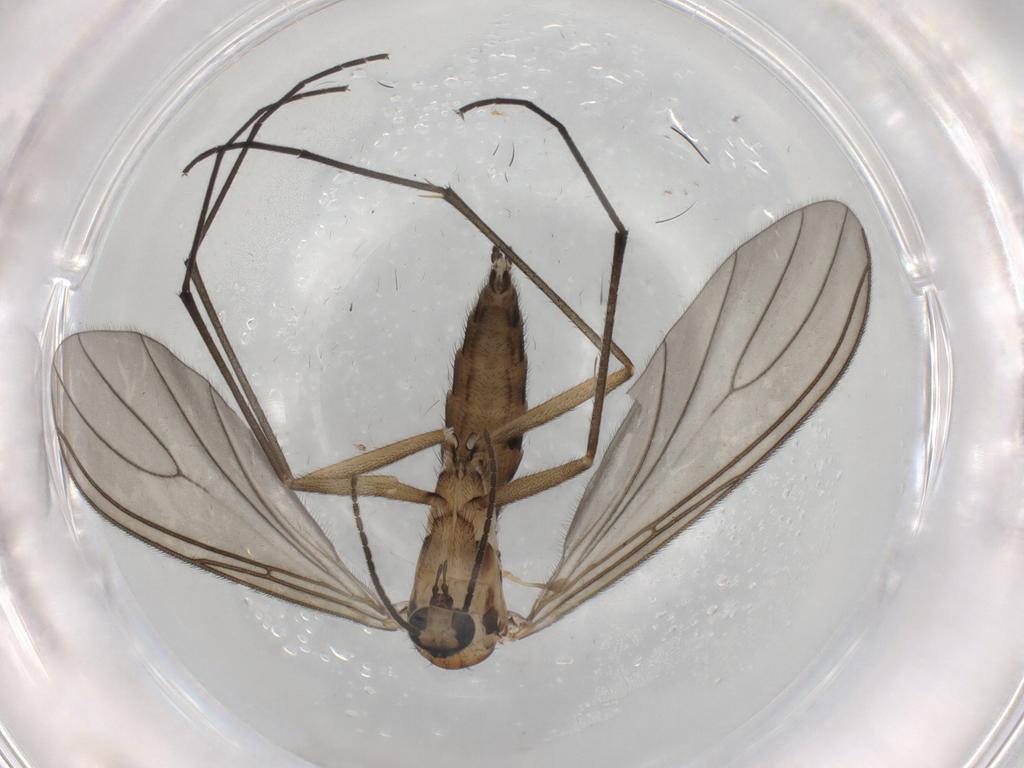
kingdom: Animalia
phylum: Arthropoda
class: Insecta
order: Diptera
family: Sciaridae
